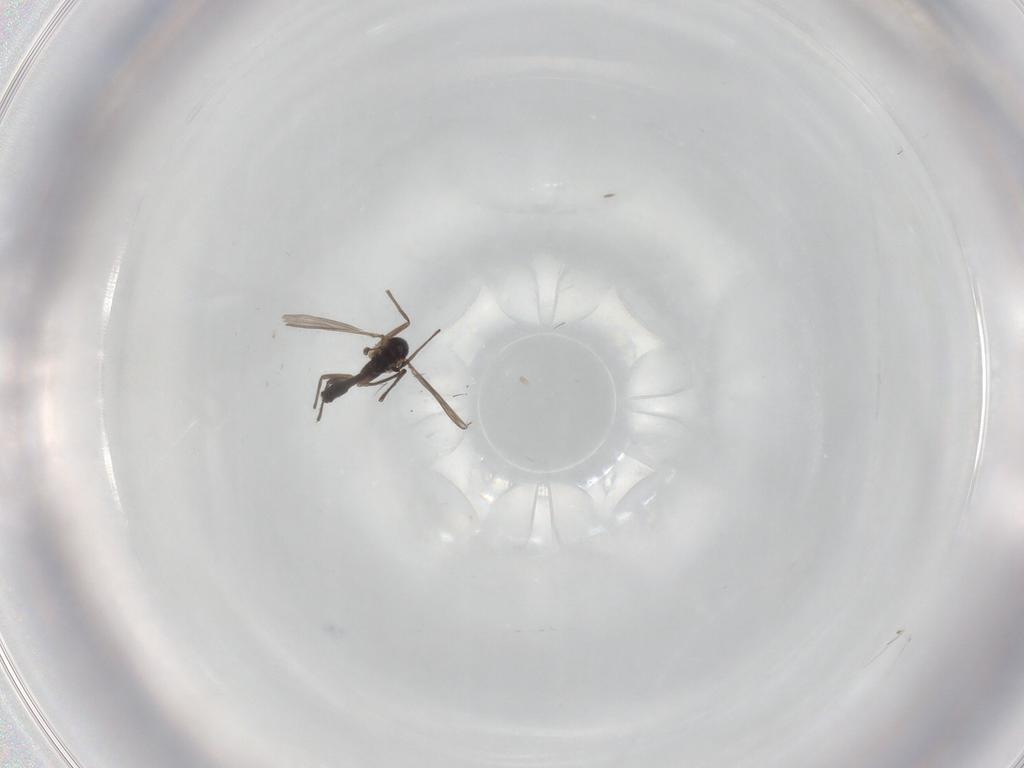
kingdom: Animalia
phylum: Arthropoda
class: Insecta
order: Diptera
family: Chironomidae
